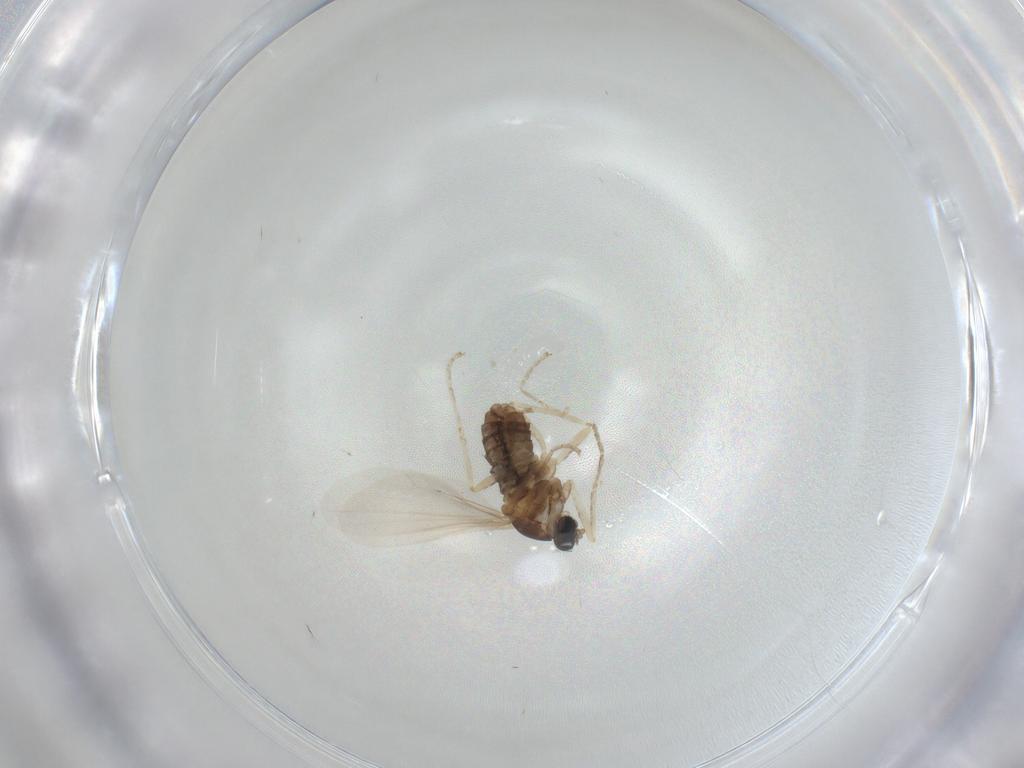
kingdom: Animalia
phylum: Arthropoda
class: Insecta
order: Diptera
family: Cecidomyiidae
